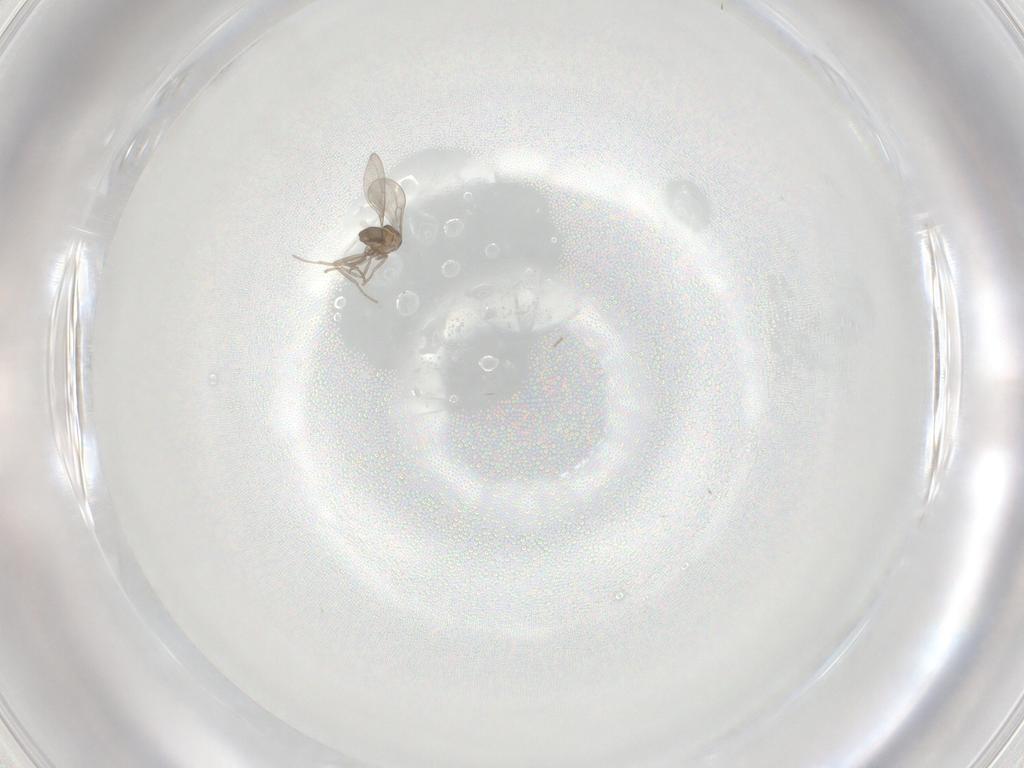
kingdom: Animalia
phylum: Arthropoda
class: Insecta
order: Diptera
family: Cecidomyiidae
